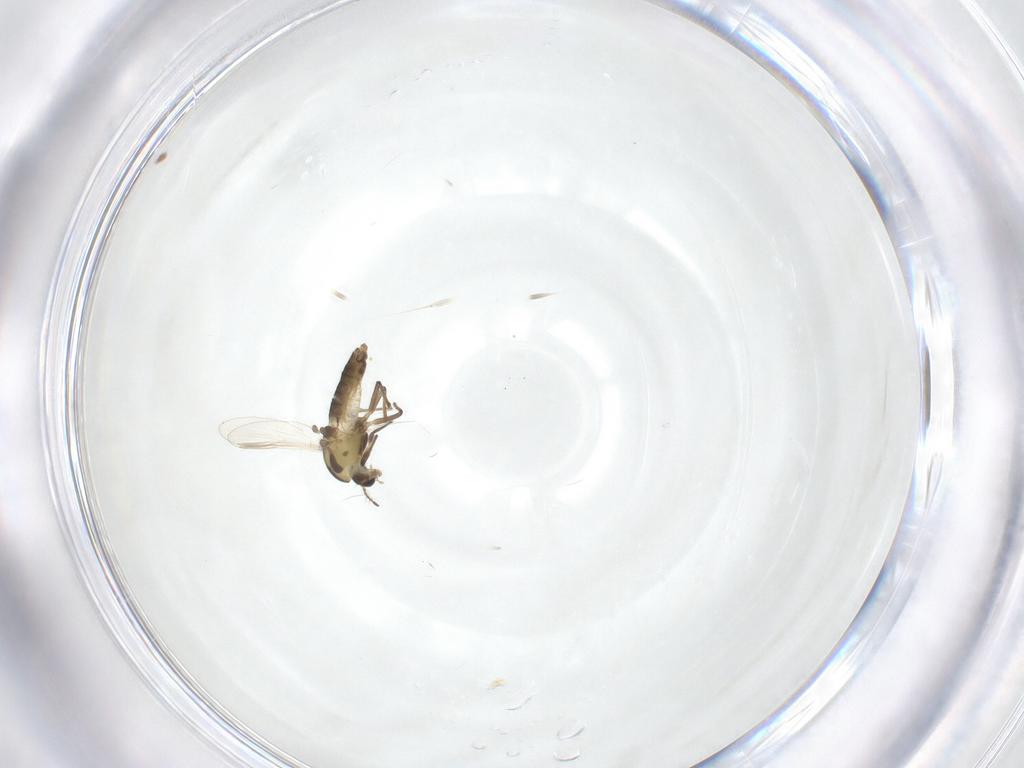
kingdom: Animalia
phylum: Arthropoda
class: Insecta
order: Diptera
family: Chironomidae
